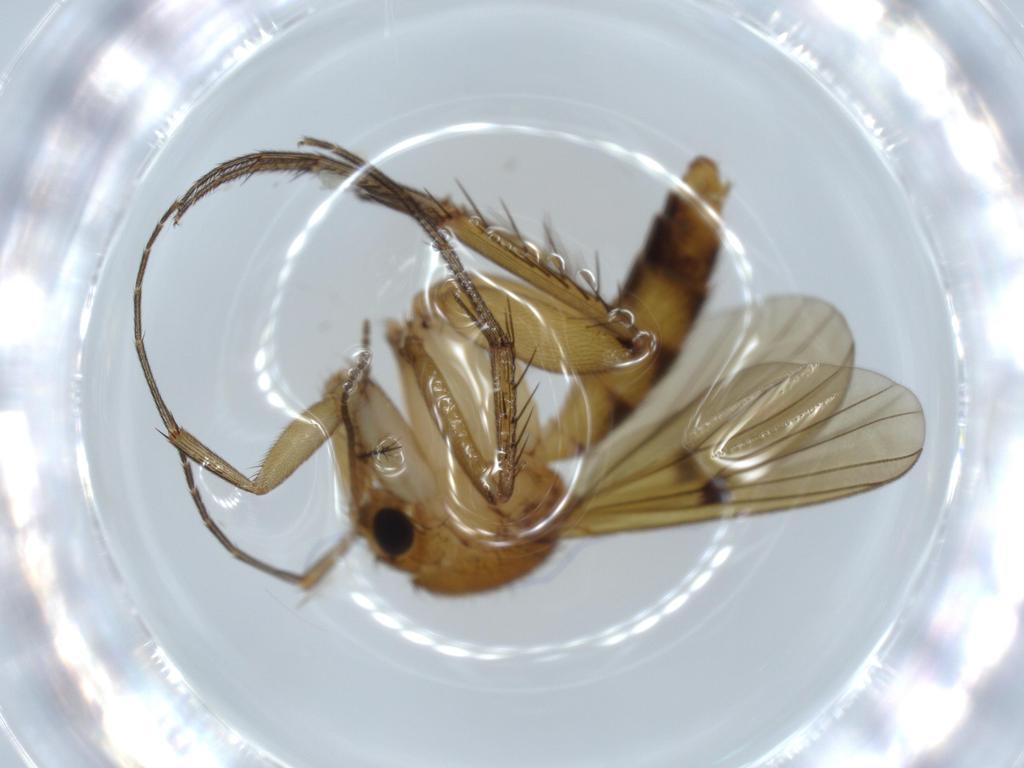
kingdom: Animalia
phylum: Arthropoda
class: Insecta
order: Diptera
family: Mycetophilidae
